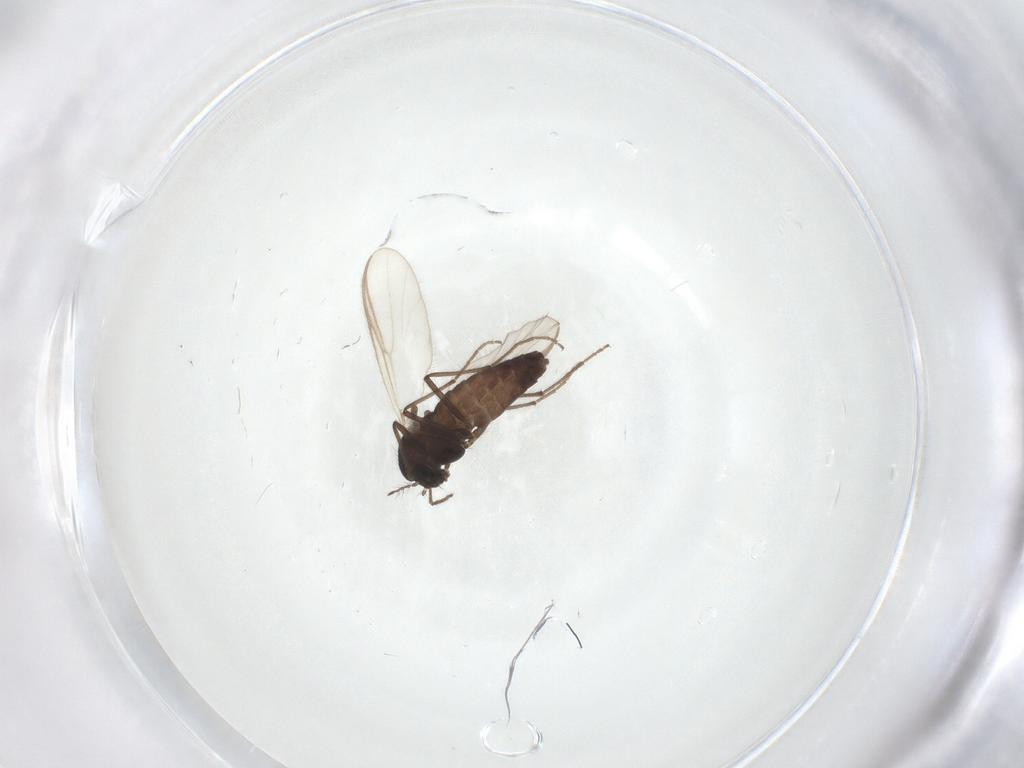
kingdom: Animalia
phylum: Arthropoda
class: Insecta
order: Diptera
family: Chironomidae
